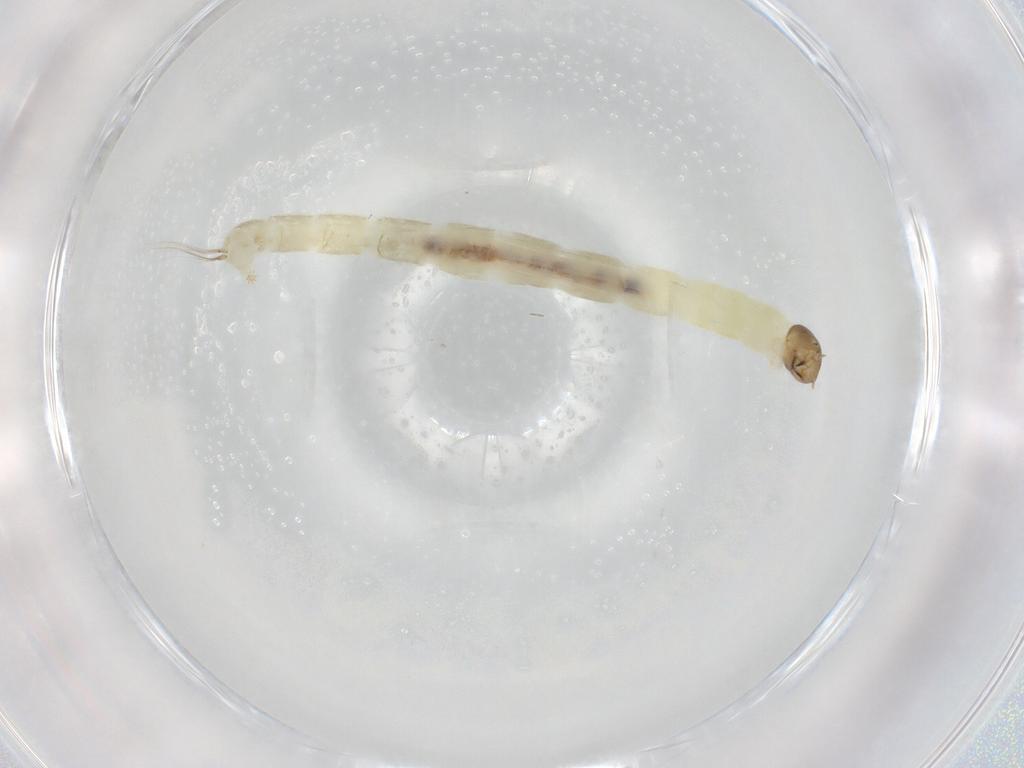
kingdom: Animalia
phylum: Arthropoda
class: Insecta
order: Diptera
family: Chironomidae
